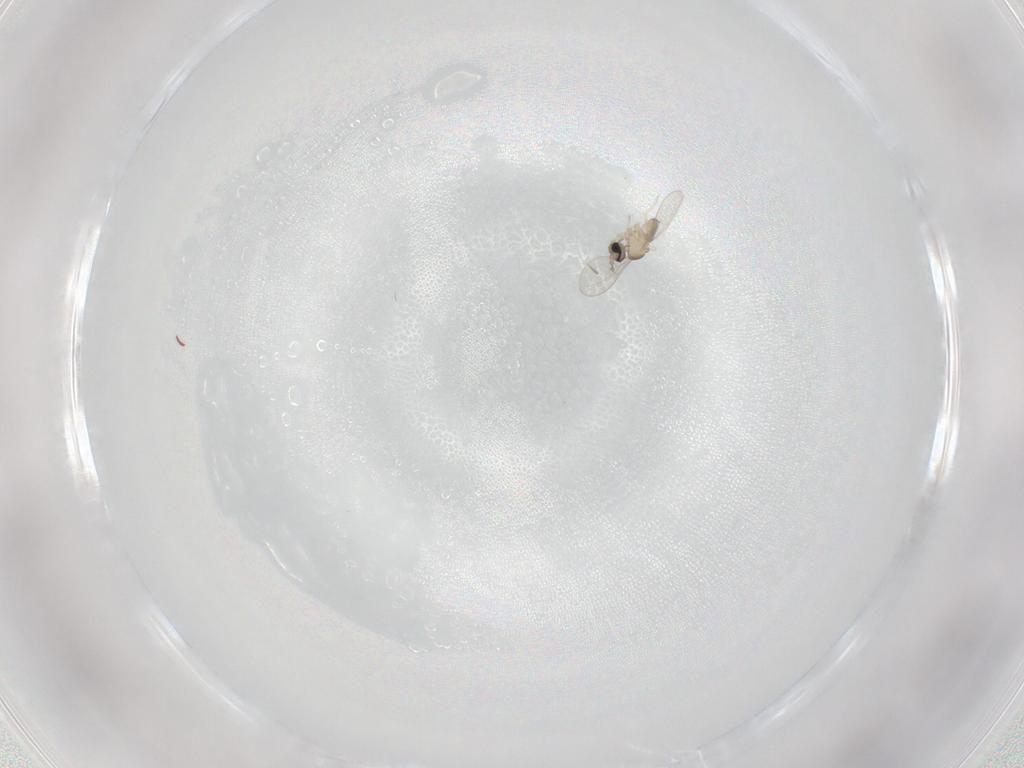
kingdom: Animalia
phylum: Arthropoda
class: Insecta
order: Diptera
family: Cecidomyiidae
